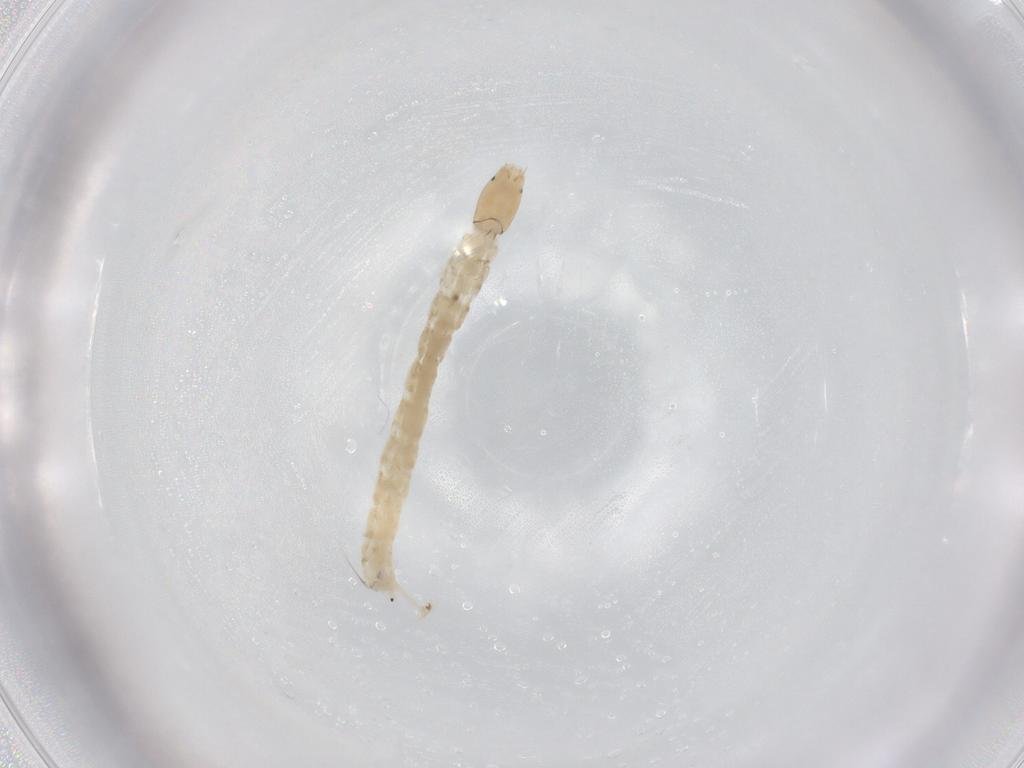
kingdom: Animalia
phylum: Arthropoda
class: Insecta
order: Diptera
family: Chironomidae
